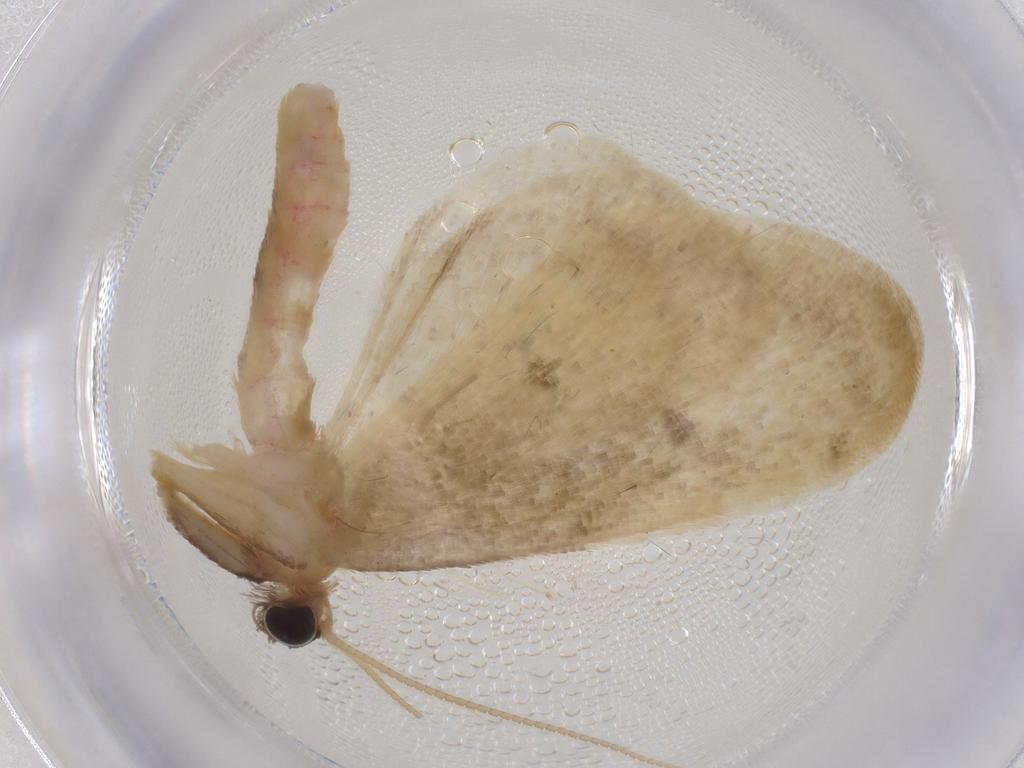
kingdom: Animalia
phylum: Arthropoda
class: Insecta
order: Lepidoptera
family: Geometridae
